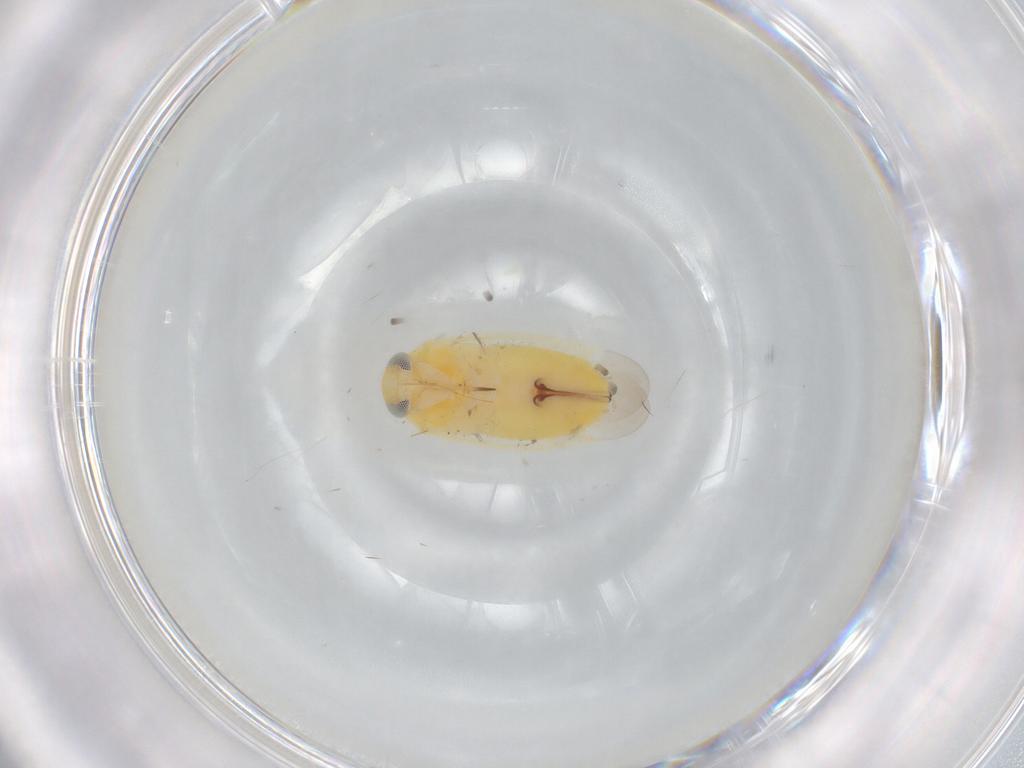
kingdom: Animalia
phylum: Arthropoda
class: Insecta
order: Hemiptera
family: Miridae
